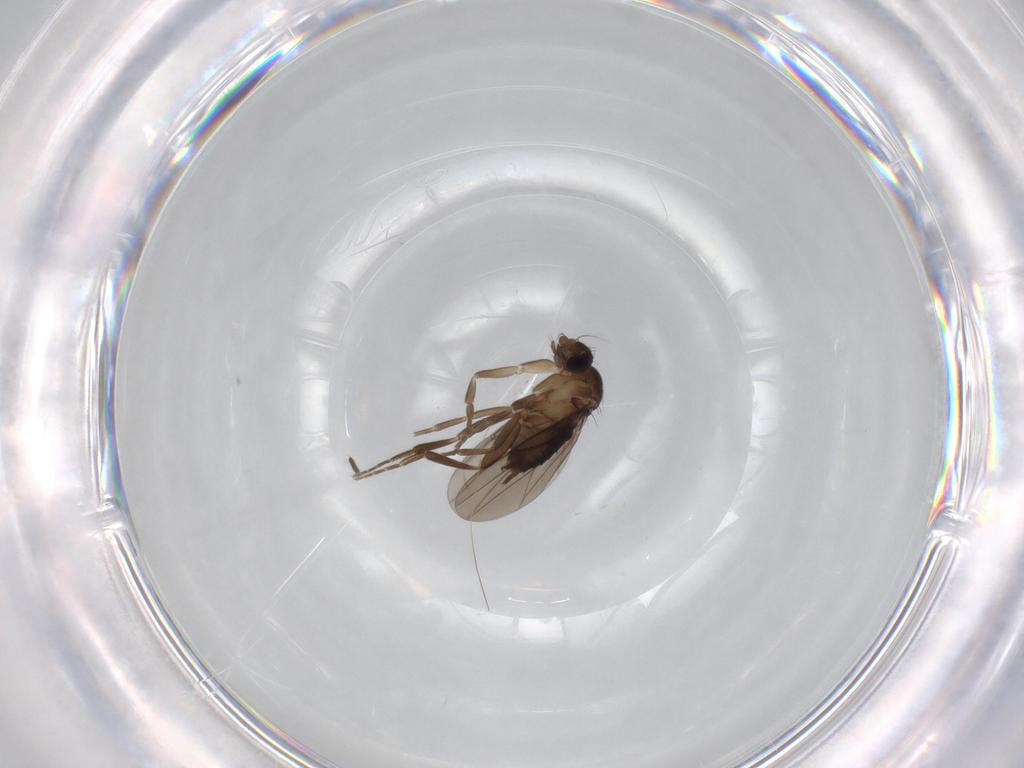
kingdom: Animalia
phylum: Arthropoda
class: Insecta
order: Diptera
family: Phoridae
